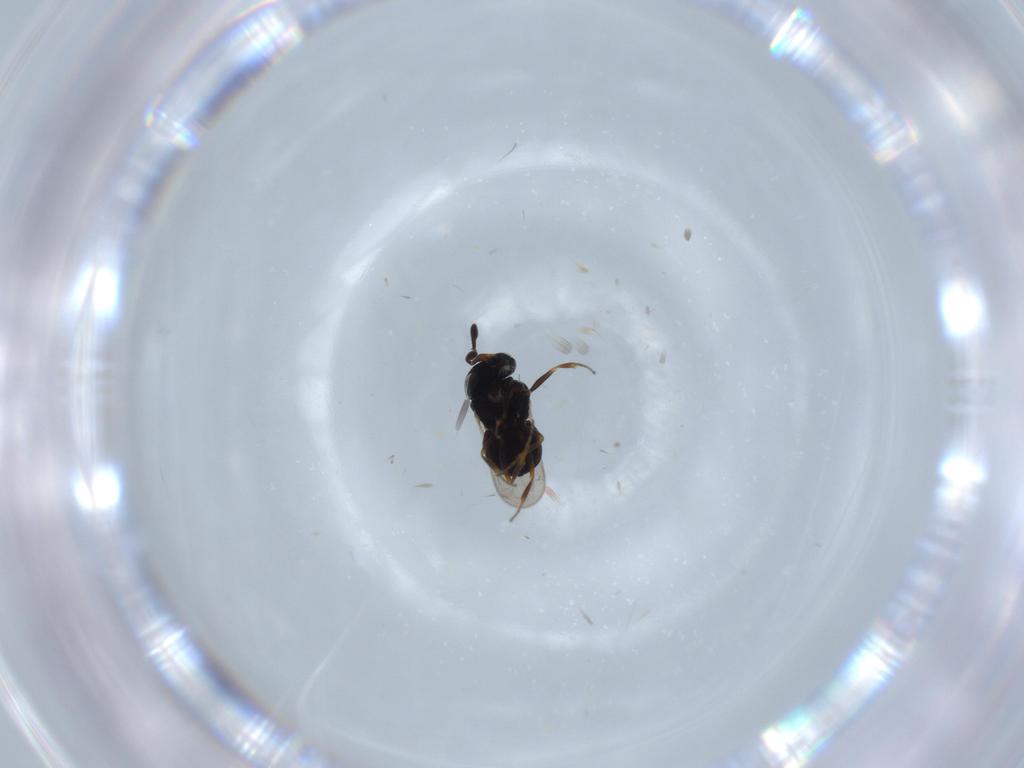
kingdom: Animalia
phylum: Arthropoda
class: Insecta
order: Hymenoptera
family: Scelionidae
